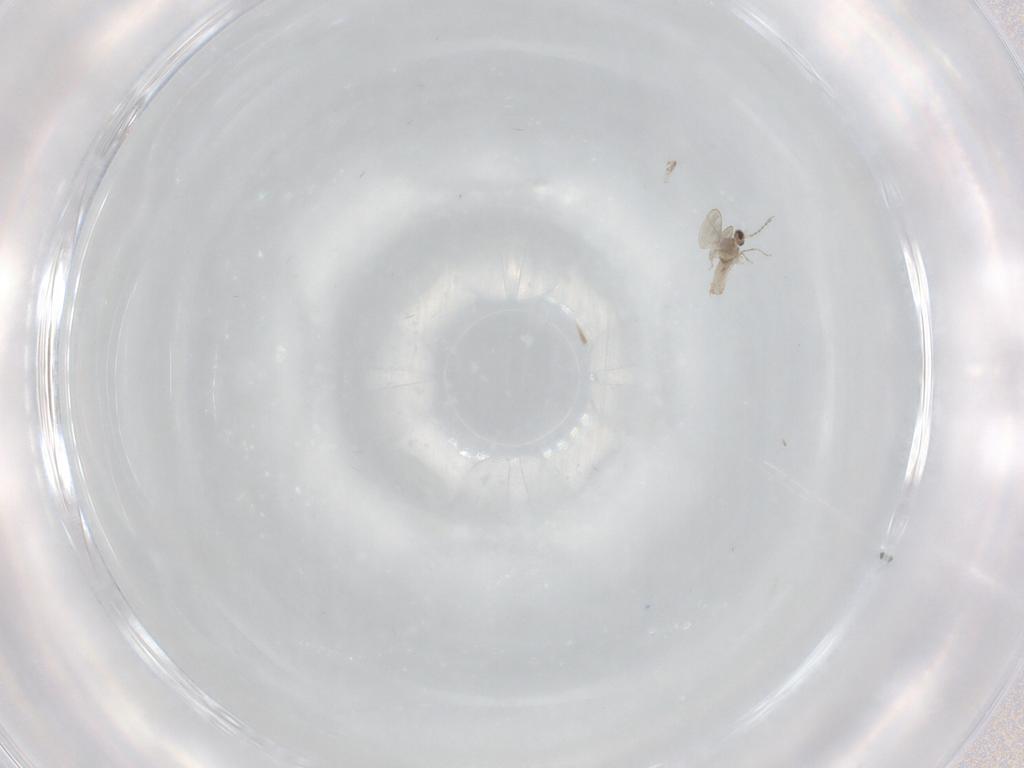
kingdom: Animalia
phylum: Arthropoda
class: Insecta
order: Diptera
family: Cecidomyiidae
